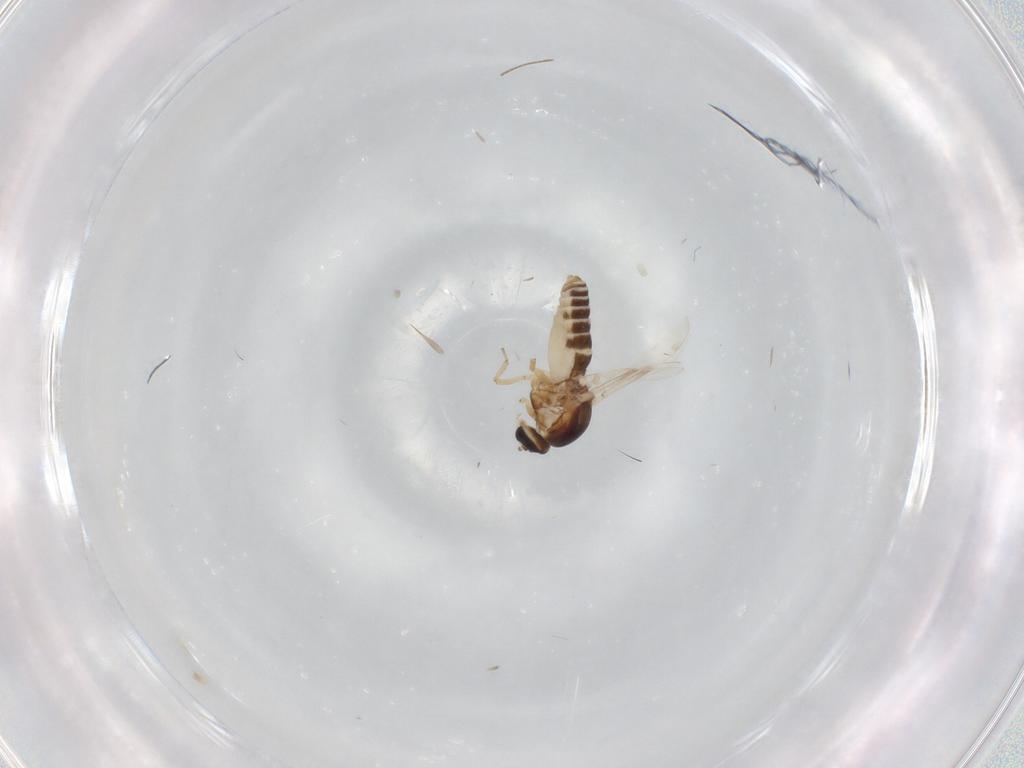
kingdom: Animalia
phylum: Arthropoda
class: Insecta
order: Diptera
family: Ceratopogonidae
